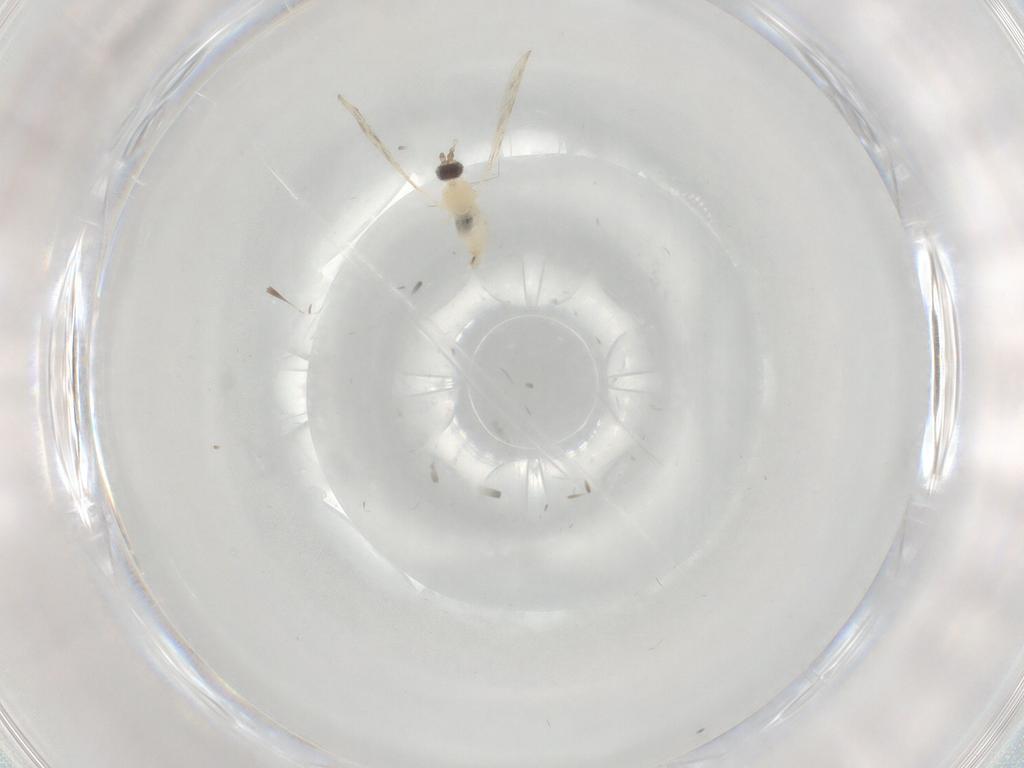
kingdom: Animalia
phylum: Arthropoda
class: Insecta
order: Diptera
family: Cecidomyiidae
